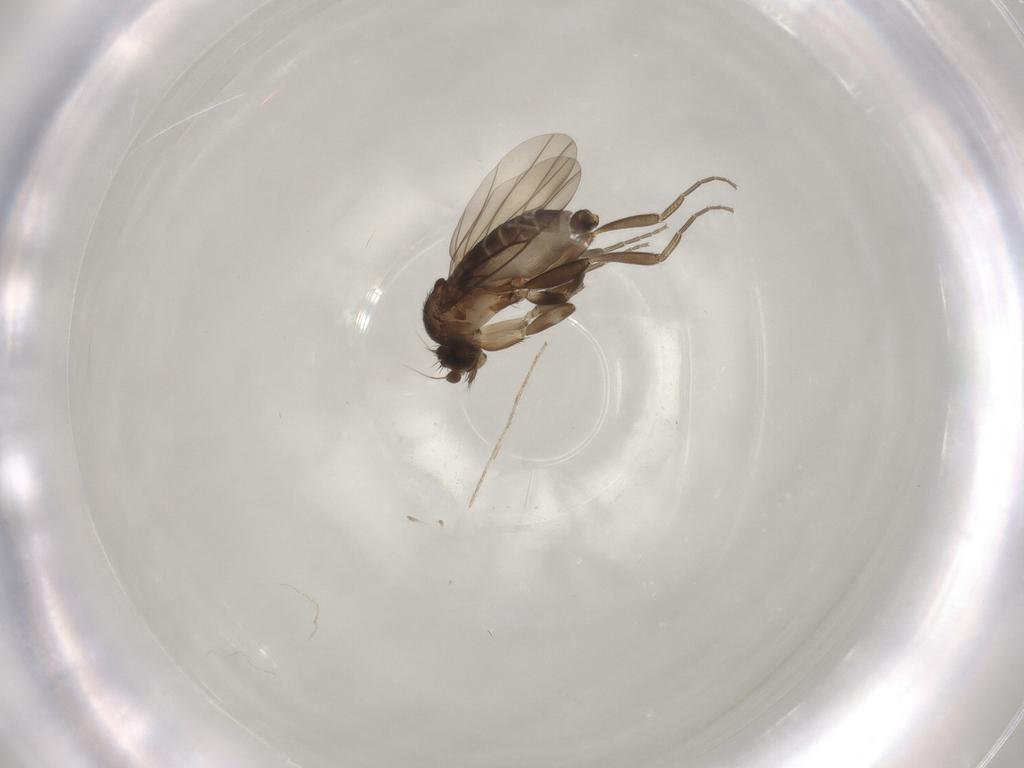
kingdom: Animalia
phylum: Arthropoda
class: Insecta
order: Diptera
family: Phoridae
